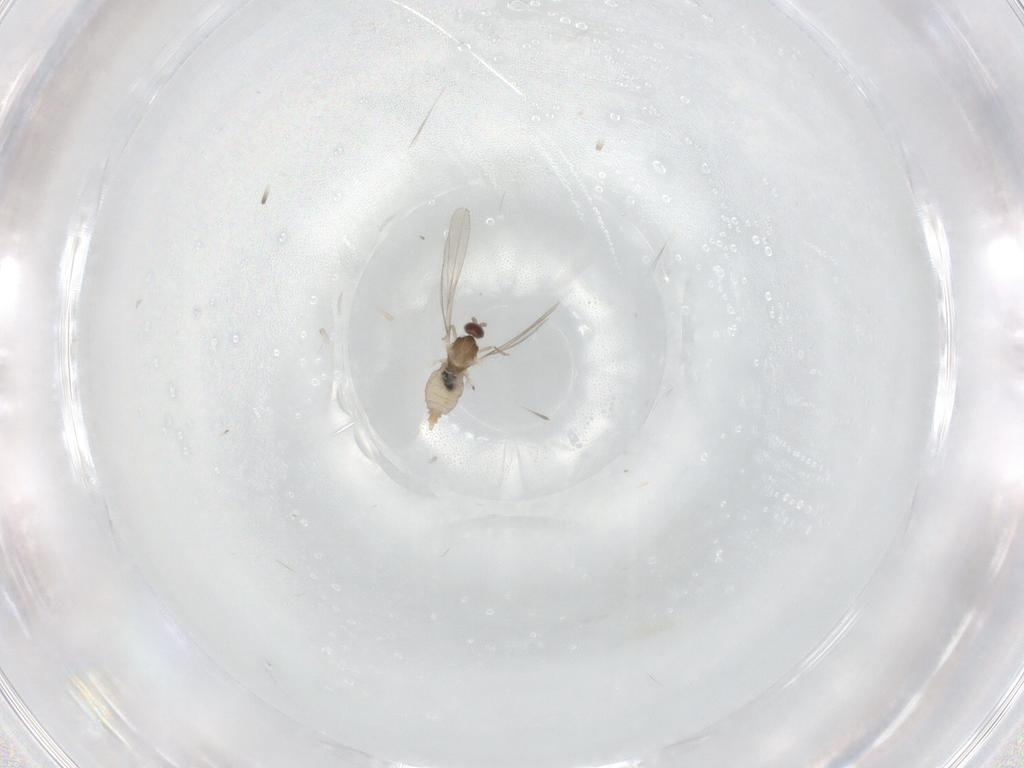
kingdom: Animalia
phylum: Arthropoda
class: Insecta
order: Diptera
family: Cecidomyiidae
